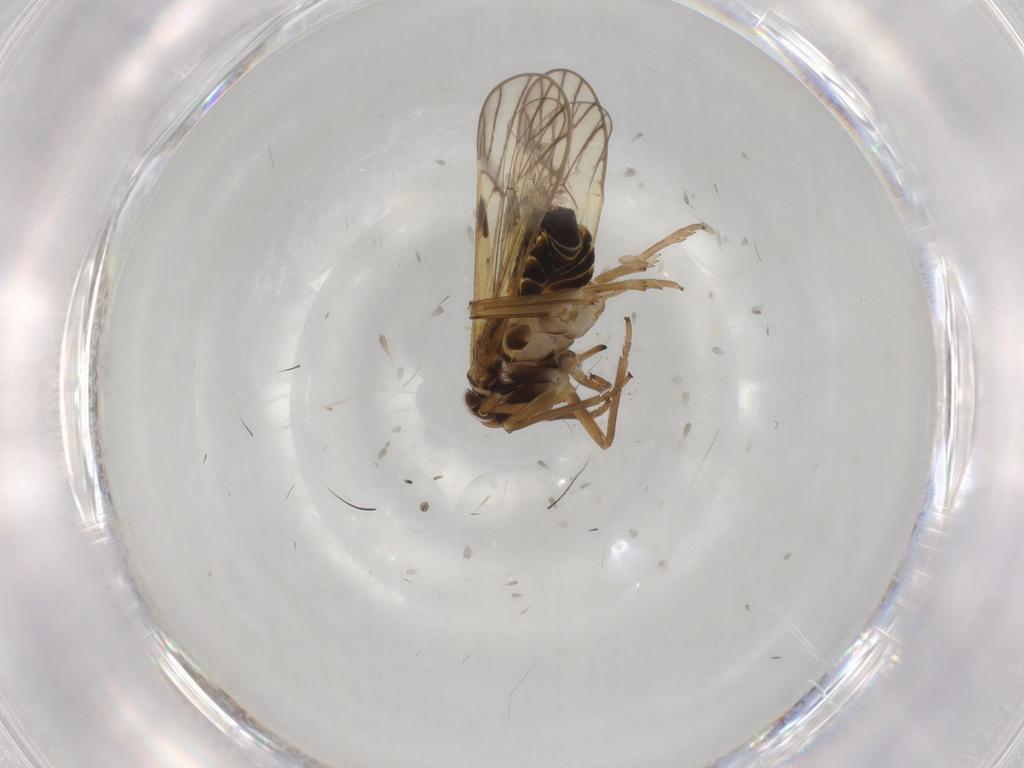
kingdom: Animalia
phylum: Arthropoda
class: Insecta
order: Hemiptera
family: Delphacidae
